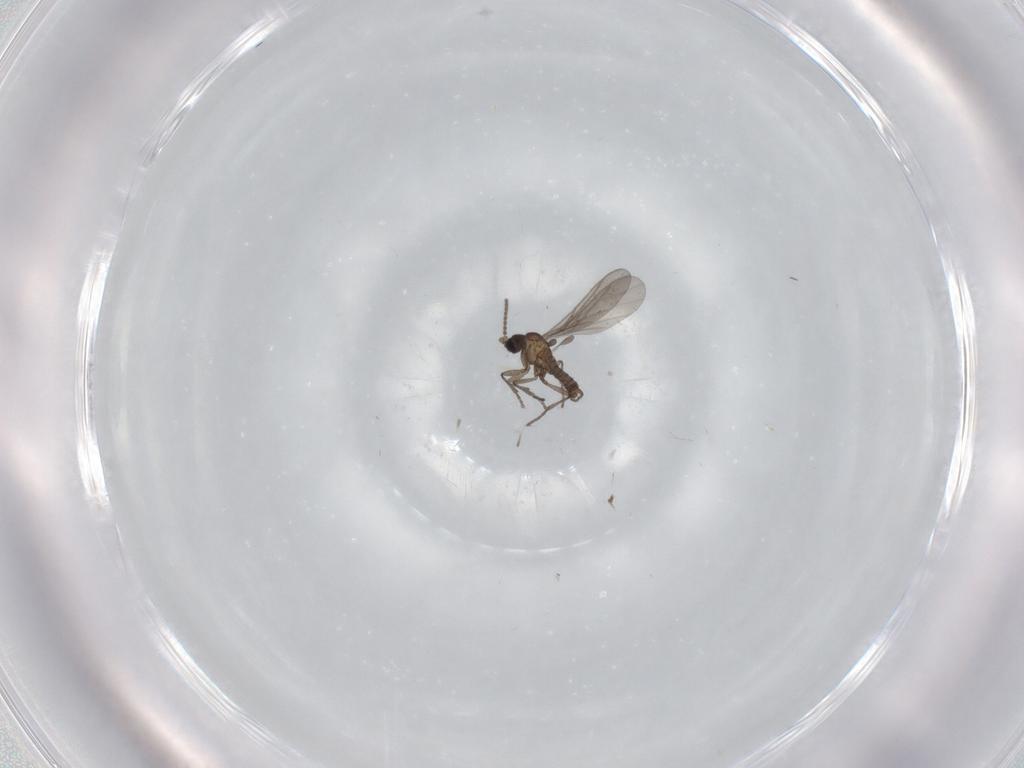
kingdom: Animalia
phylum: Arthropoda
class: Insecta
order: Diptera
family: Sciaridae
